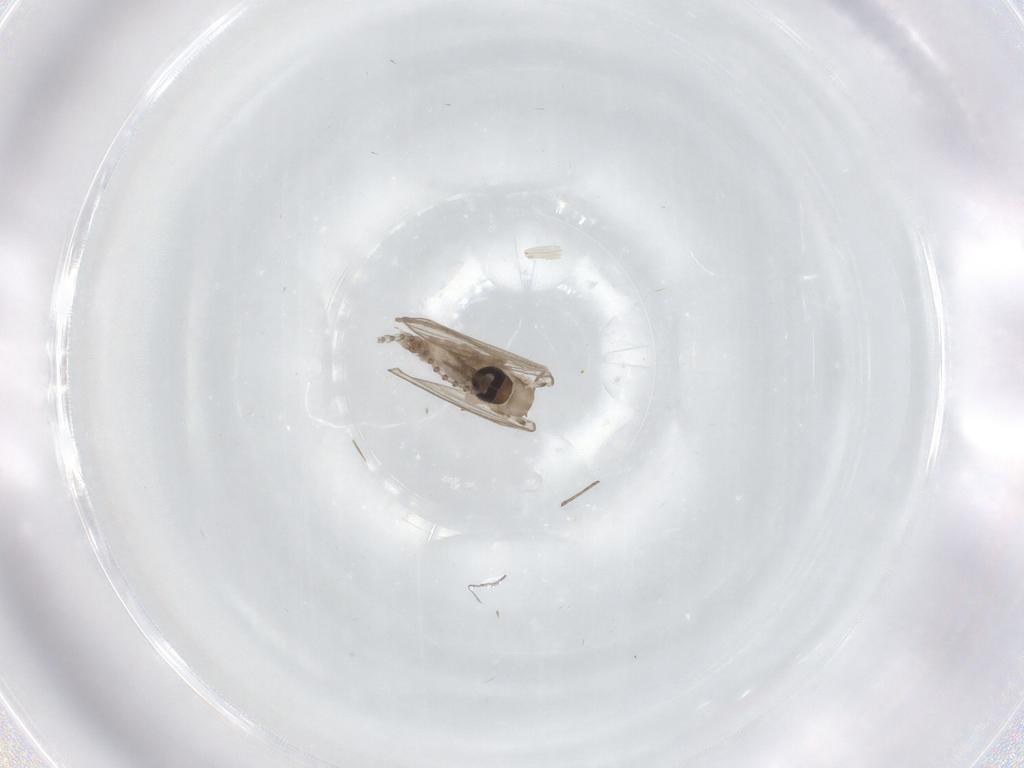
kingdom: Animalia
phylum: Arthropoda
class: Insecta
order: Diptera
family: Psychodidae
